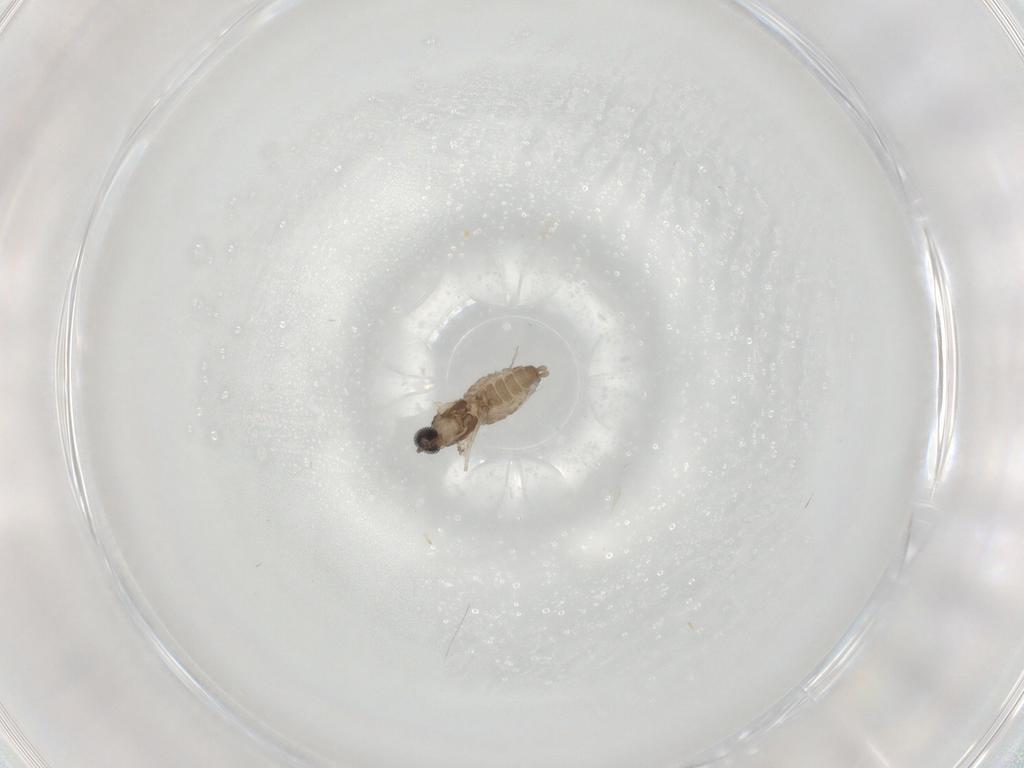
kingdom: Animalia
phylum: Arthropoda
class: Insecta
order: Diptera
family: Cecidomyiidae
